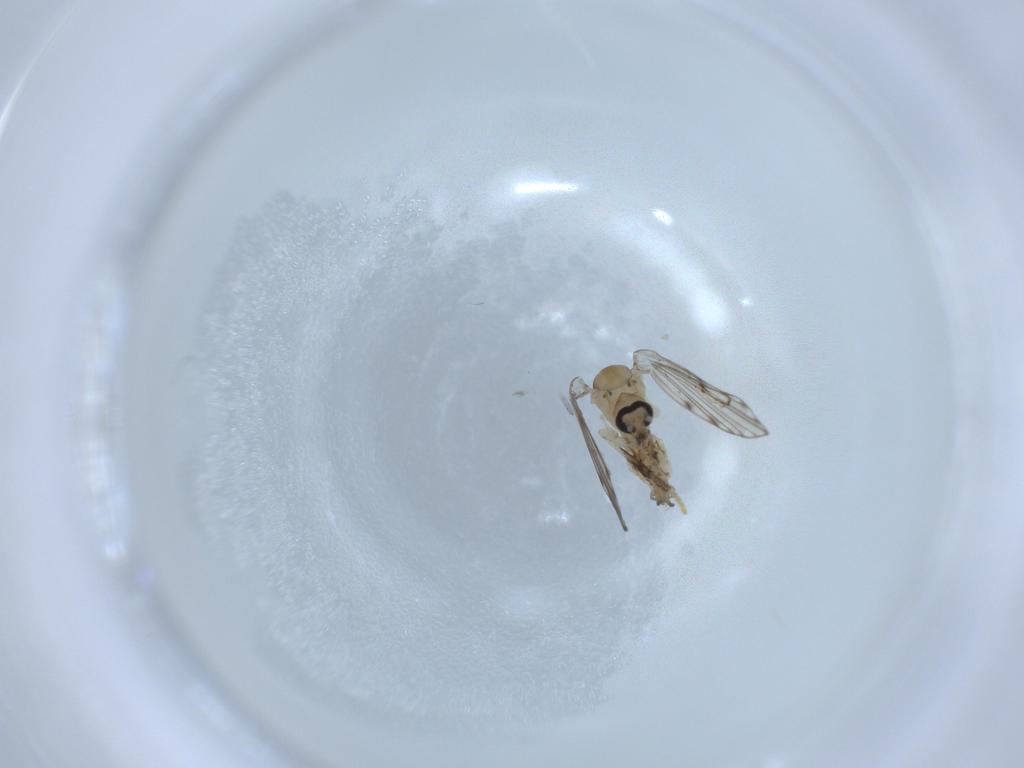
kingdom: Animalia
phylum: Arthropoda
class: Insecta
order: Diptera
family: Psychodidae
